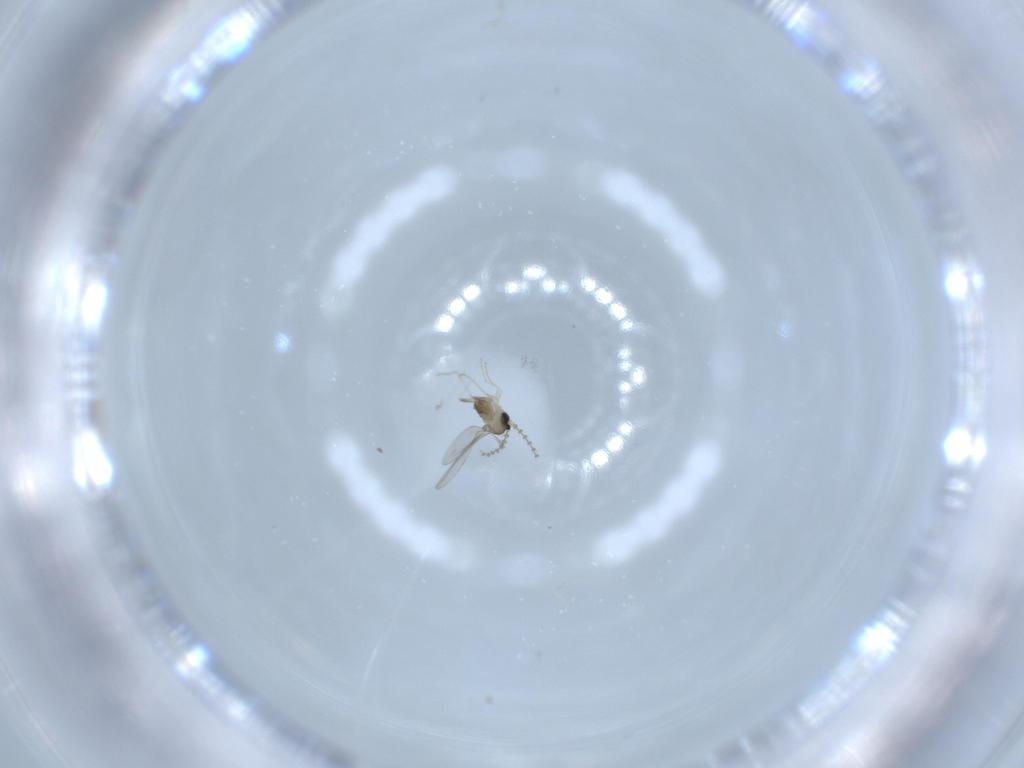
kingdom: Animalia
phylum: Arthropoda
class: Insecta
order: Diptera
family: Cecidomyiidae
